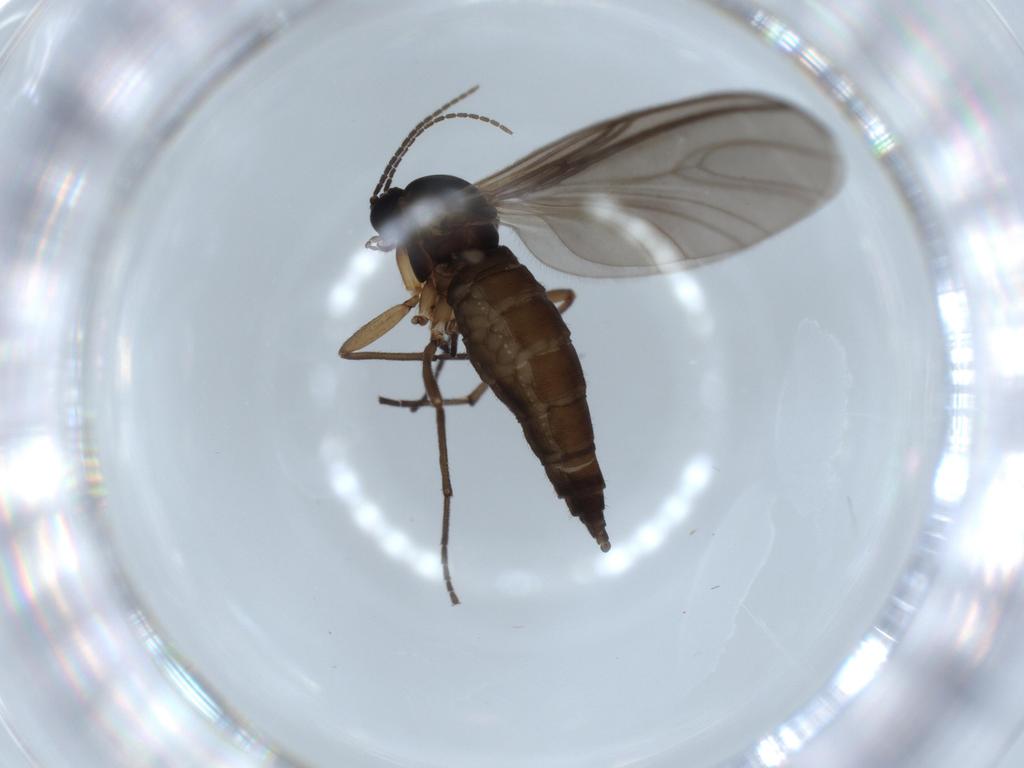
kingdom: Animalia
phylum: Arthropoda
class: Insecta
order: Diptera
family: Sciaridae
